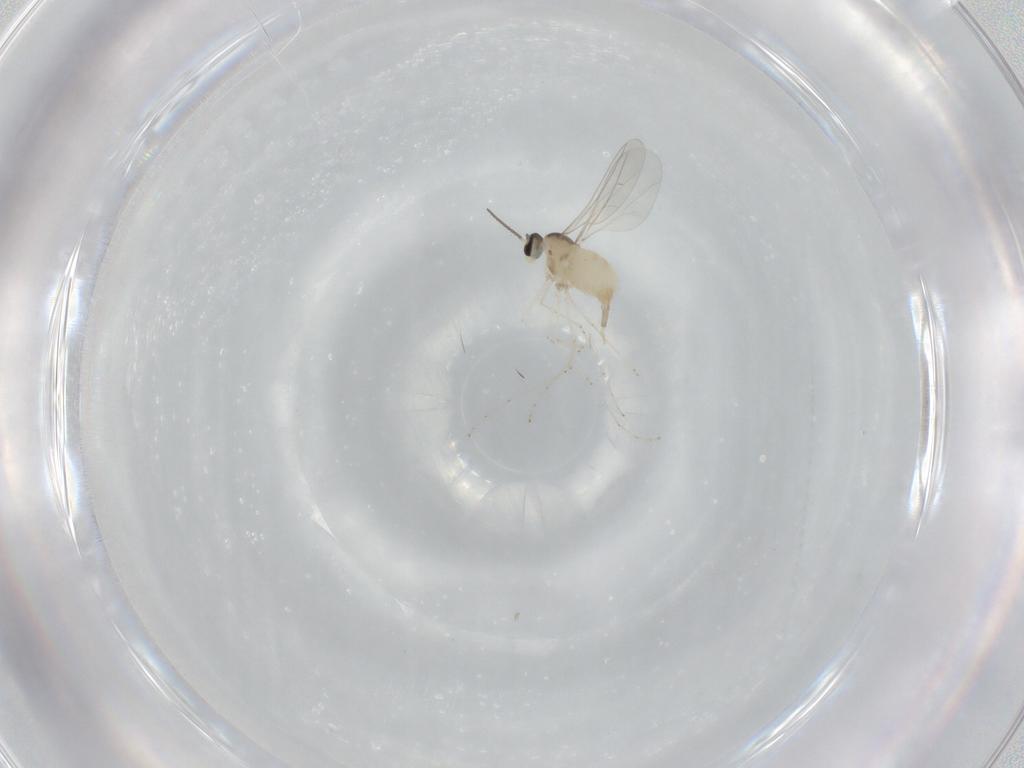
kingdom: Animalia
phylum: Arthropoda
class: Insecta
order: Diptera
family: Cecidomyiidae
